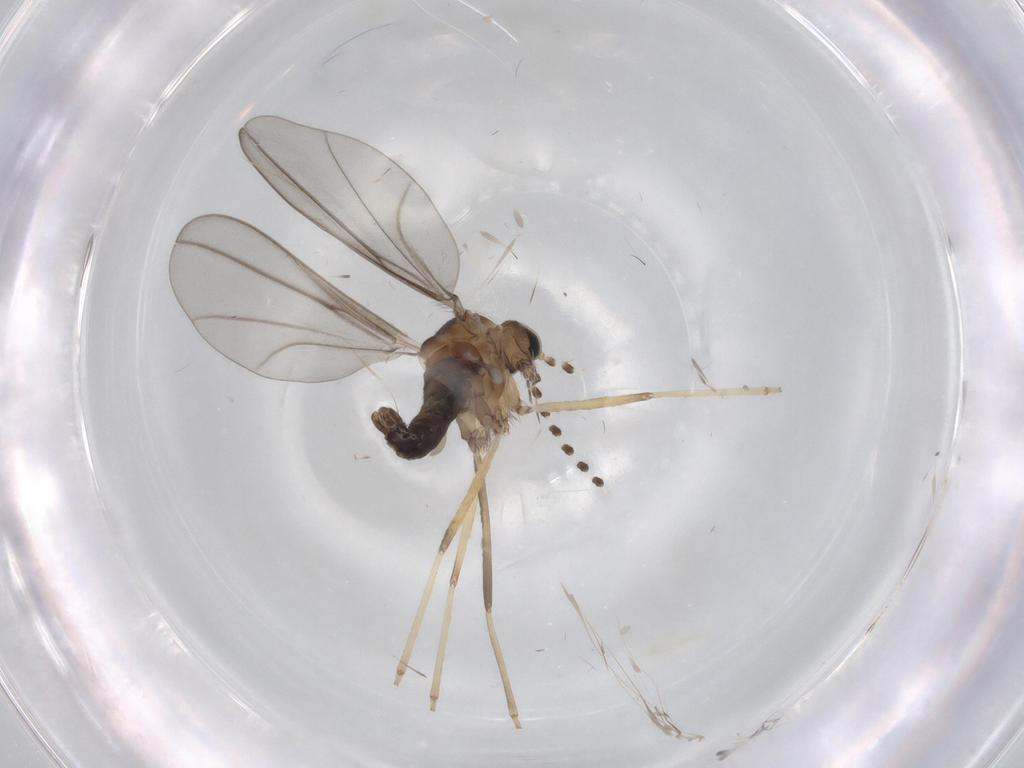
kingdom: Animalia
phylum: Arthropoda
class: Insecta
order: Diptera
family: Cecidomyiidae
